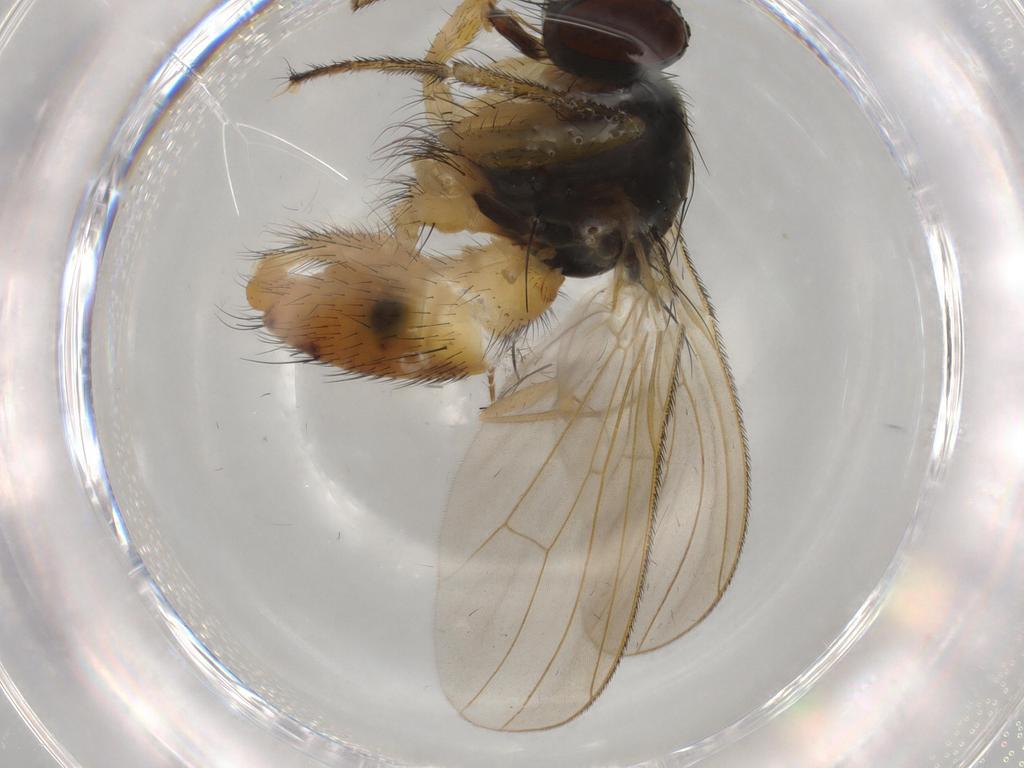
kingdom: Animalia
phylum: Arthropoda
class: Insecta
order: Diptera
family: Drosophilidae
